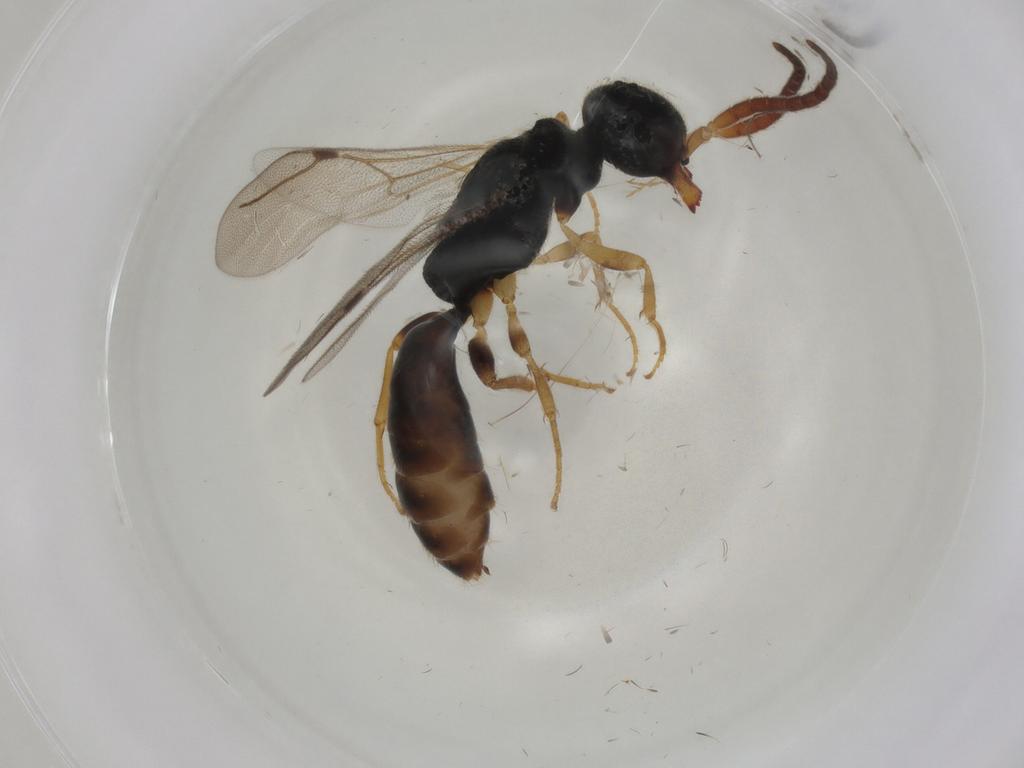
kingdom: Animalia
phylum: Arthropoda
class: Insecta
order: Hymenoptera
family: Bethylidae
